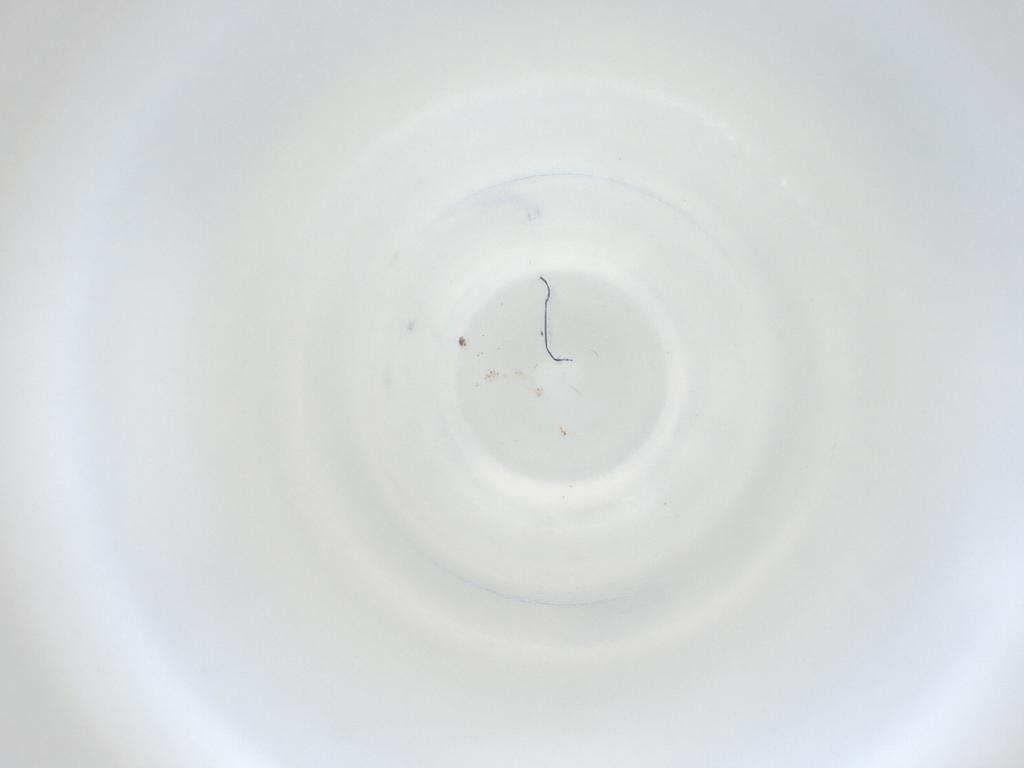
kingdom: Animalia
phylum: Arthropoda
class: Insecta
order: Diptera
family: Cecidomyiidae
